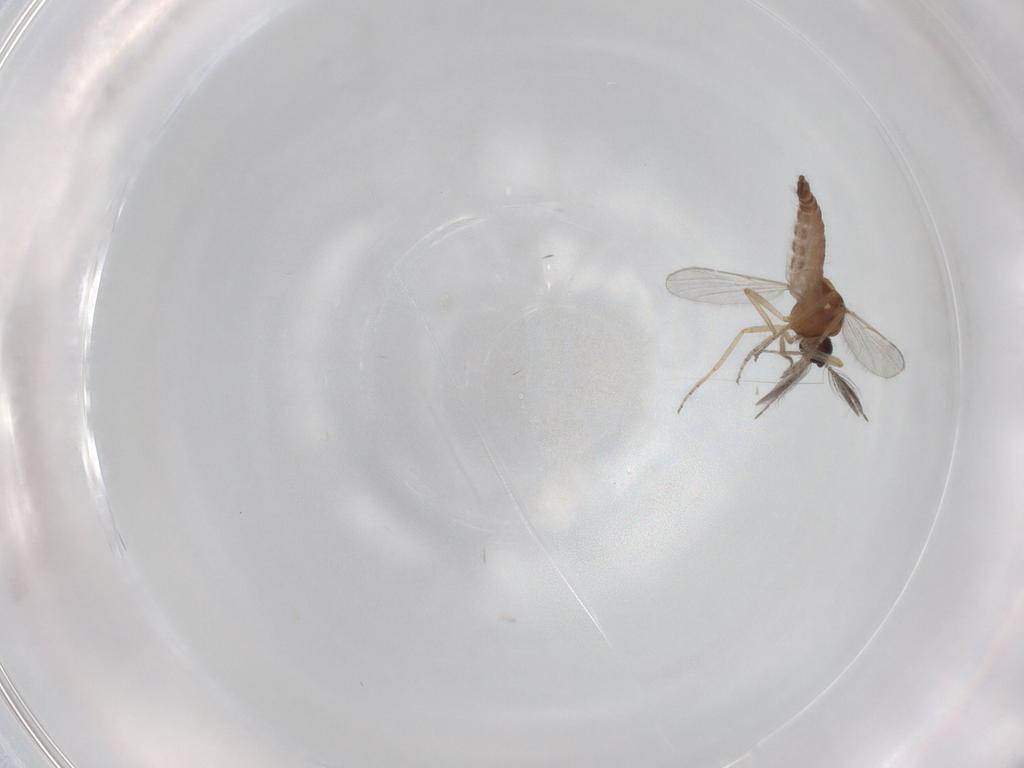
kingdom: Animalia
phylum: Arthropoda
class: Insecta
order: Diptera
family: Ceratopogonidae
